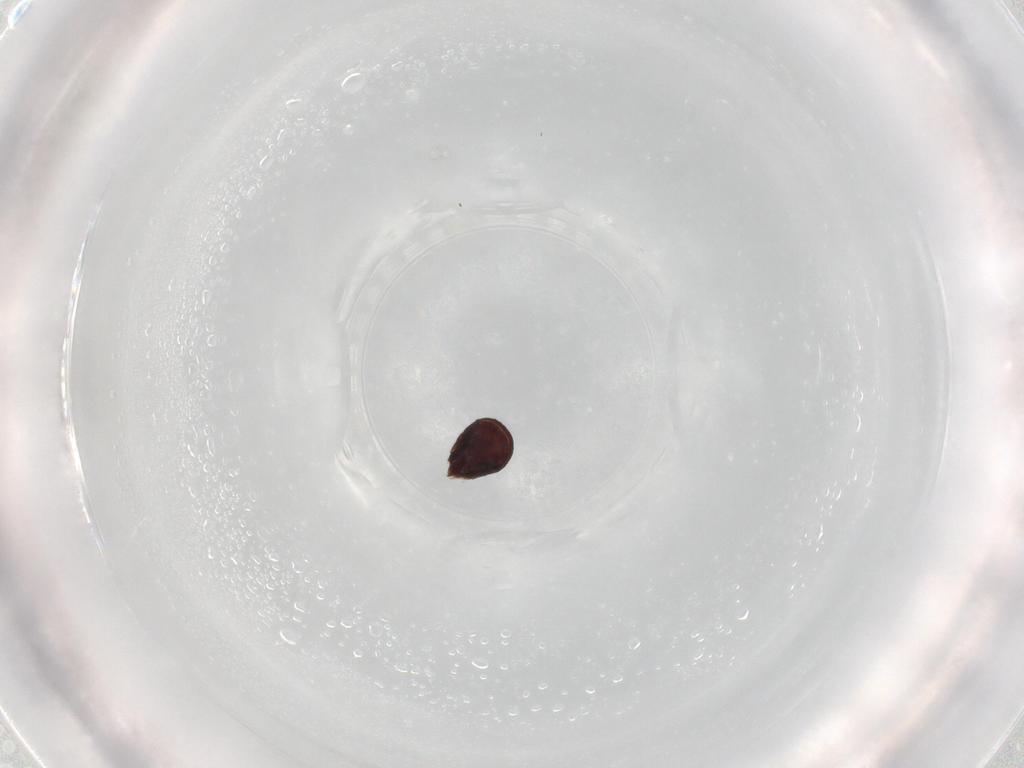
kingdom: Animalia
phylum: Arthropoda
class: Arachnida
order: Sarcoptiformes
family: Phenopelopidae
